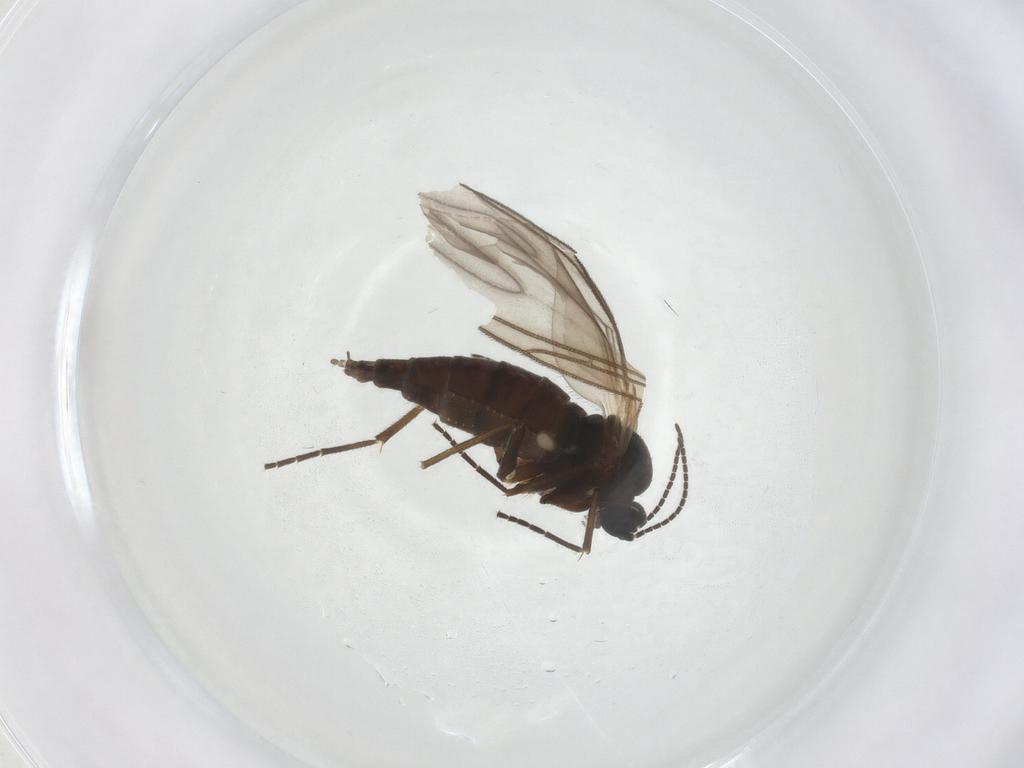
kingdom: Animalia
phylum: Arthropoda
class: Insecta
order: Diptera
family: Sciaridae
